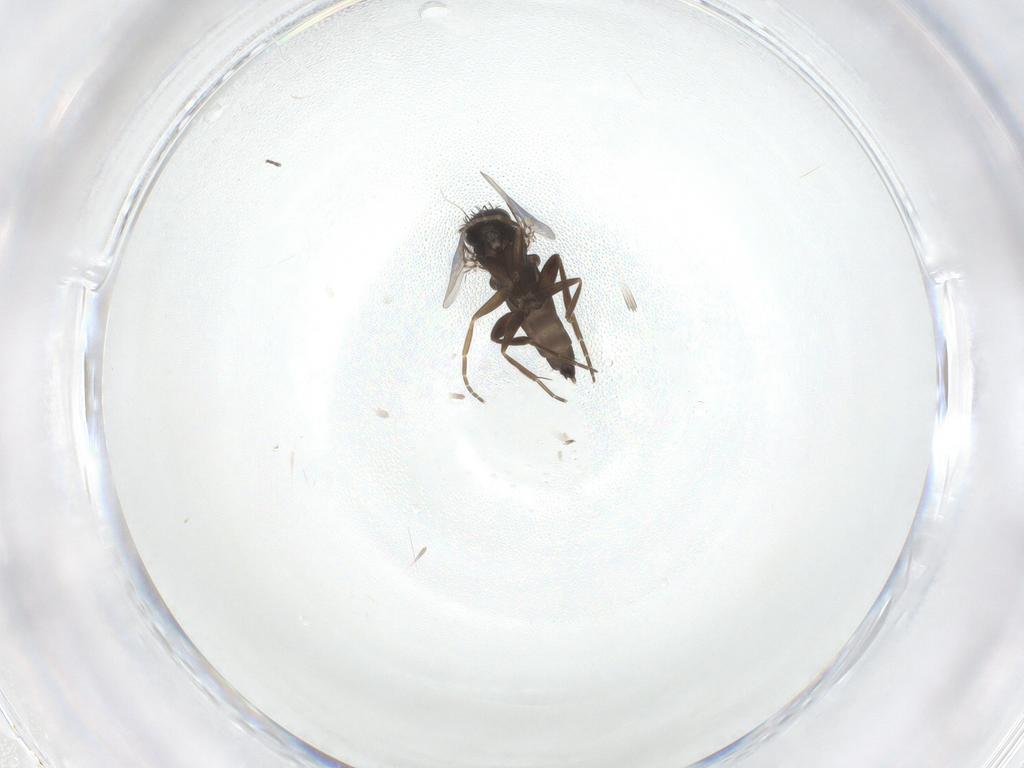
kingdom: Animalia
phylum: Arthropoda
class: Insecta
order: Diptera
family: Phoridae
